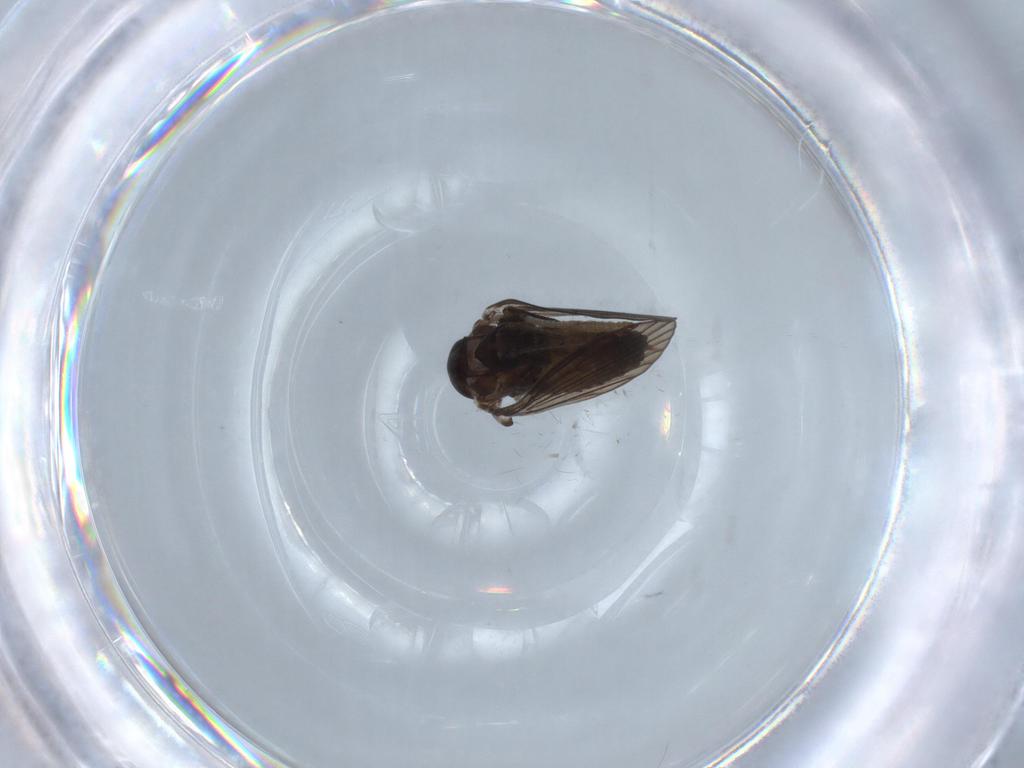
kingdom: Animalia
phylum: Arthropoda
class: Insecta
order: Diptera
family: Psychodidae
